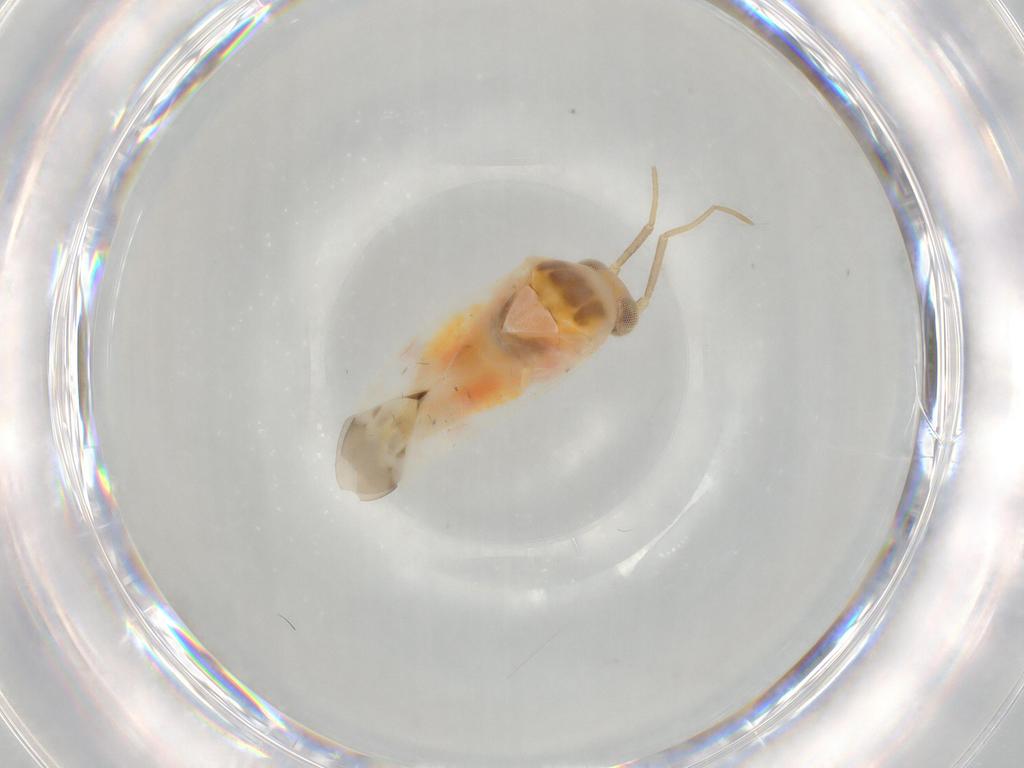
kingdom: Animalia
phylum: Arthropoda
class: Insecta
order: Hemiptera
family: Miridae
